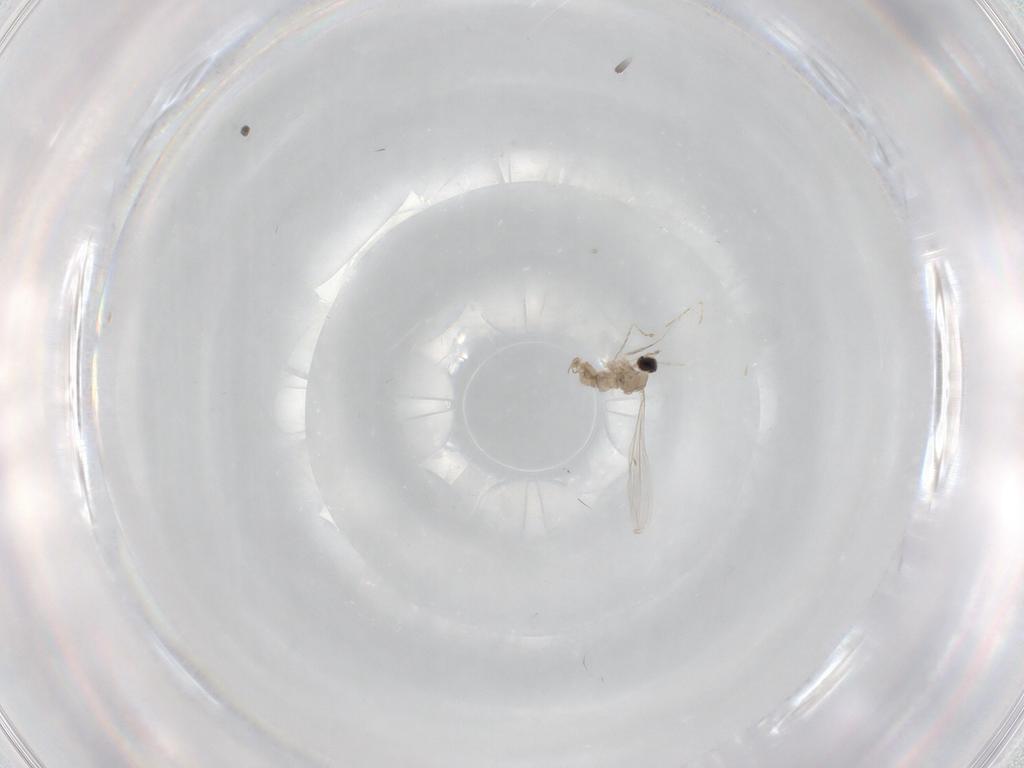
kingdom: Animalia
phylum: Arthropoda
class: Insecta
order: Diptera
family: Cecidomyiidae
